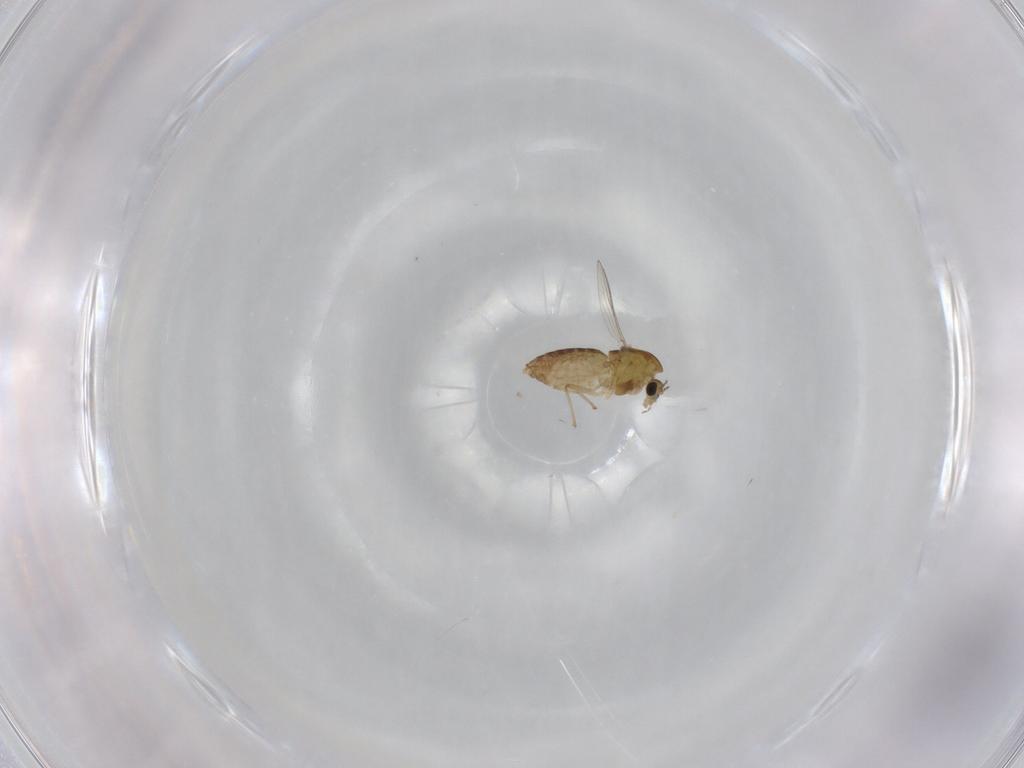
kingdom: Animalia
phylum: Arthropoda
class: Insecta
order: Diptera
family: Chironomidae
